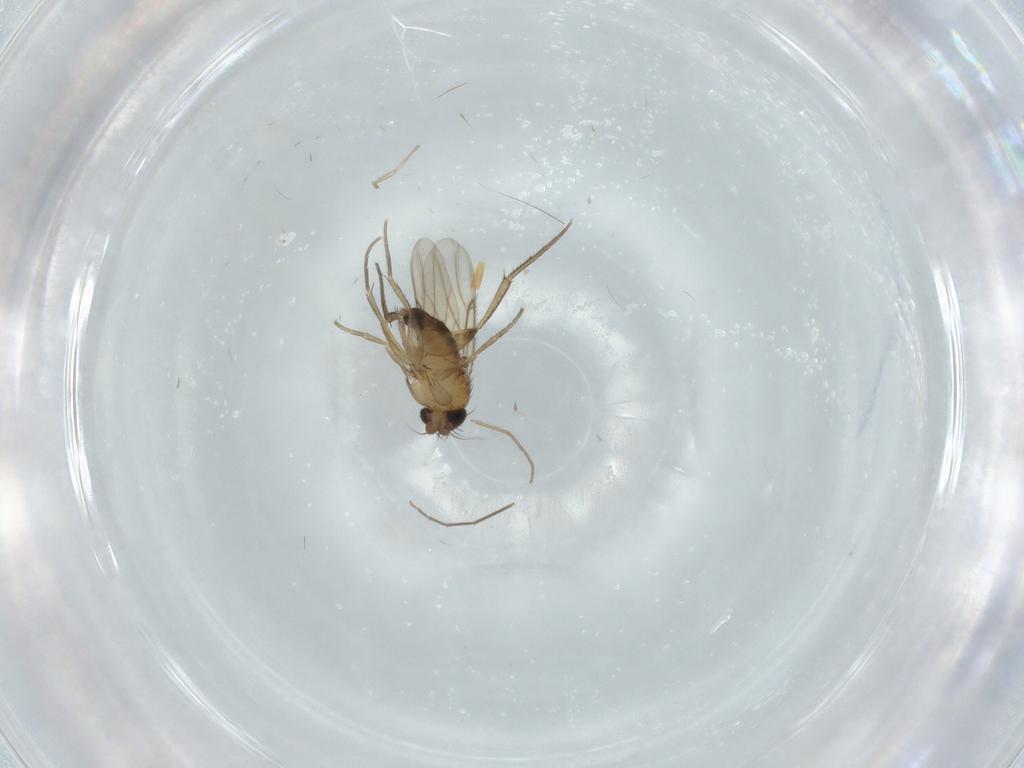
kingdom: Animalia
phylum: Arthropoda
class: Insecta
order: Diptera
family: Phoridae
